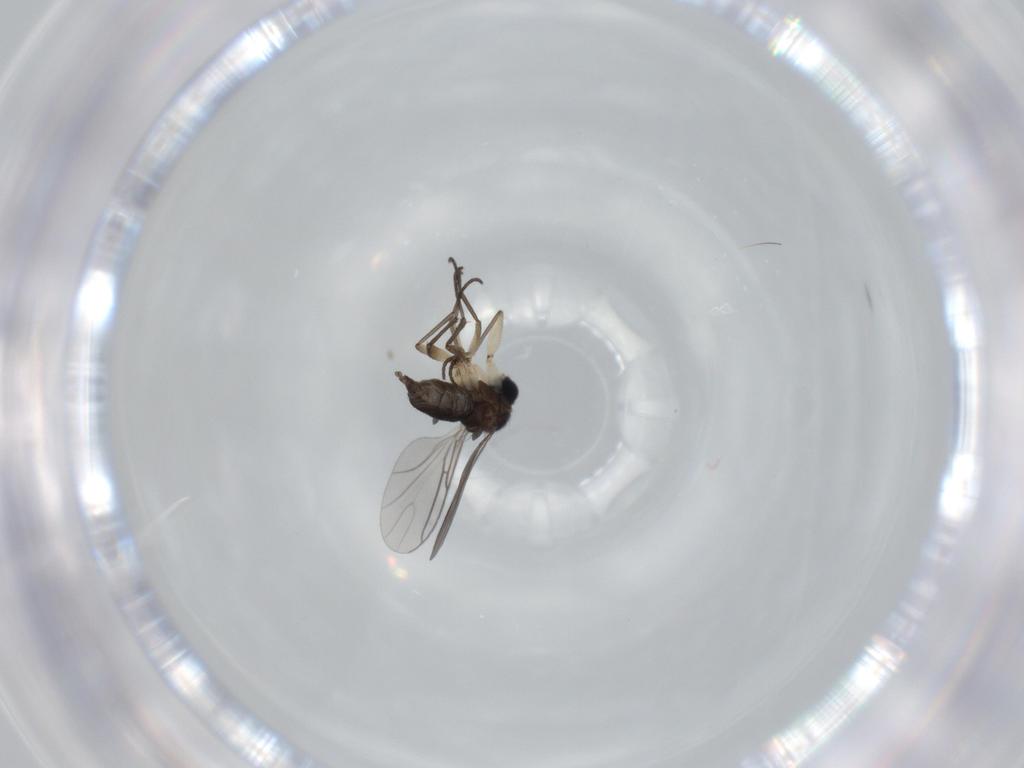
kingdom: Animalia
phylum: Arthropoda
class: Insecta
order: Diptera
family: Sciaridae
